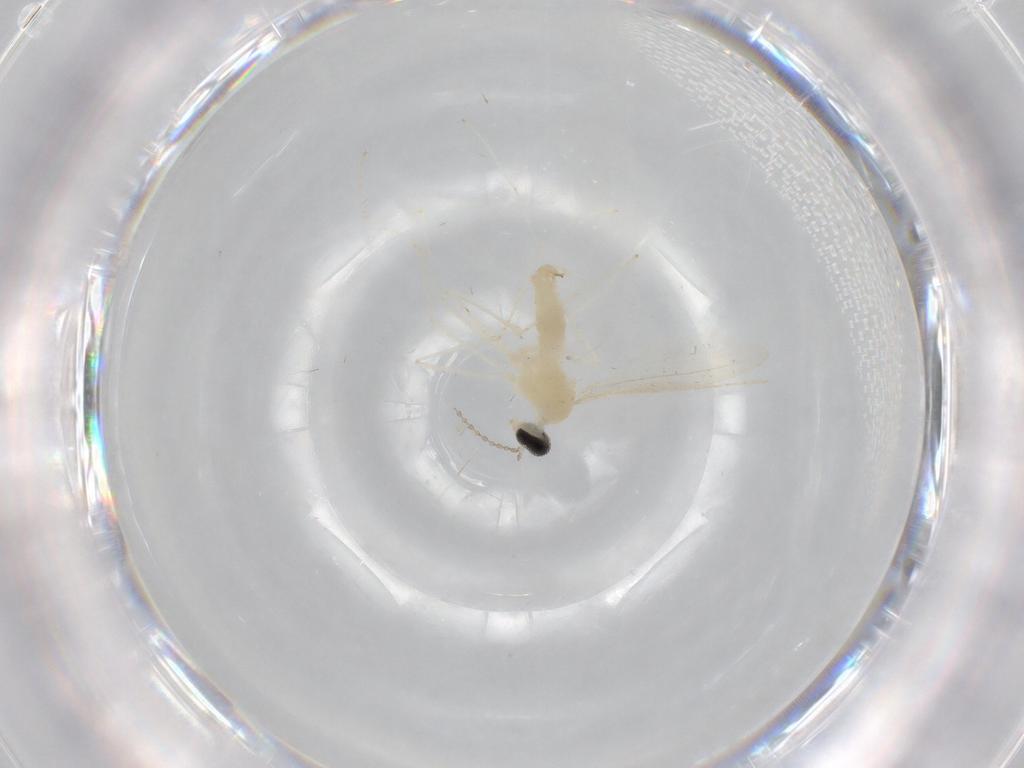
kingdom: Animalia
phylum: Arthropoda
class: Insecta
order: Diptera
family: Cecidomyiidae
